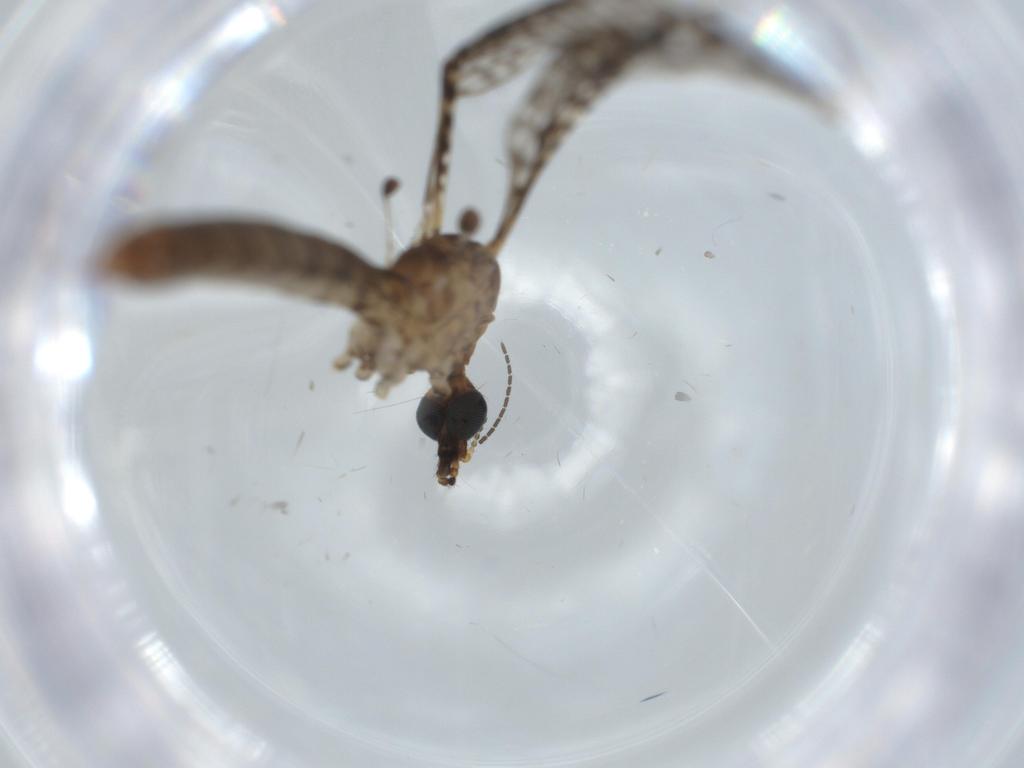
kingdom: Animalia
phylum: Arthropoda
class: Insecta
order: Diptera
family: Sciaridae
